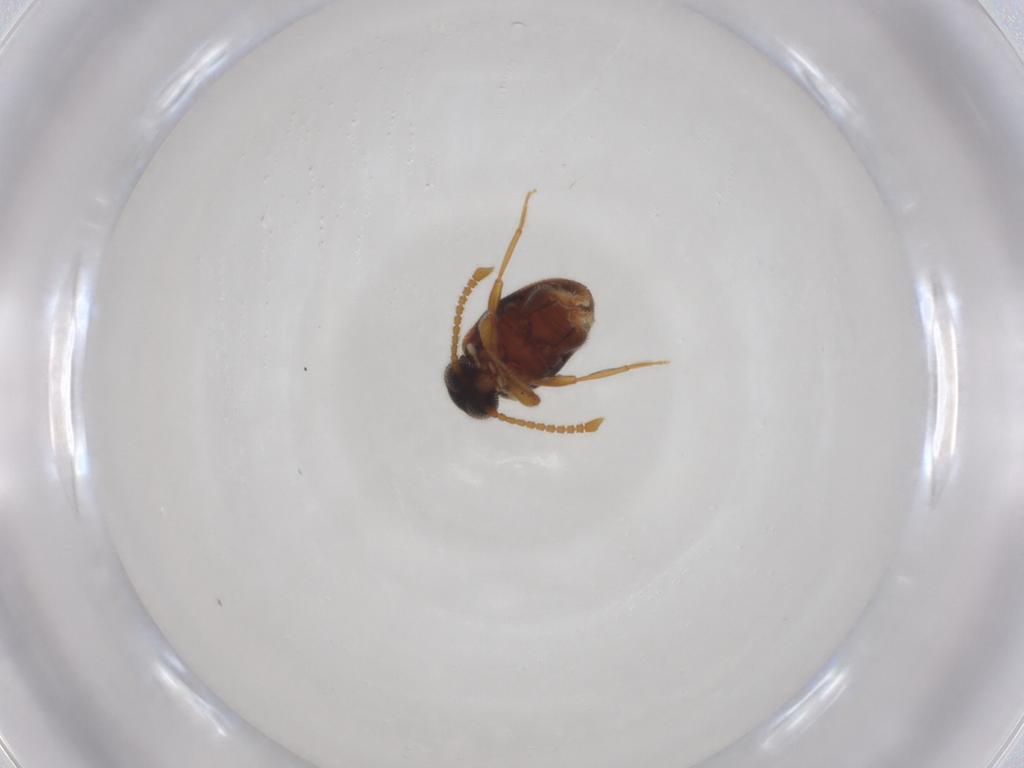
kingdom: Animalia
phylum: Arthropoda
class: Insecta
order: Coleoptera
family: Aderidae
